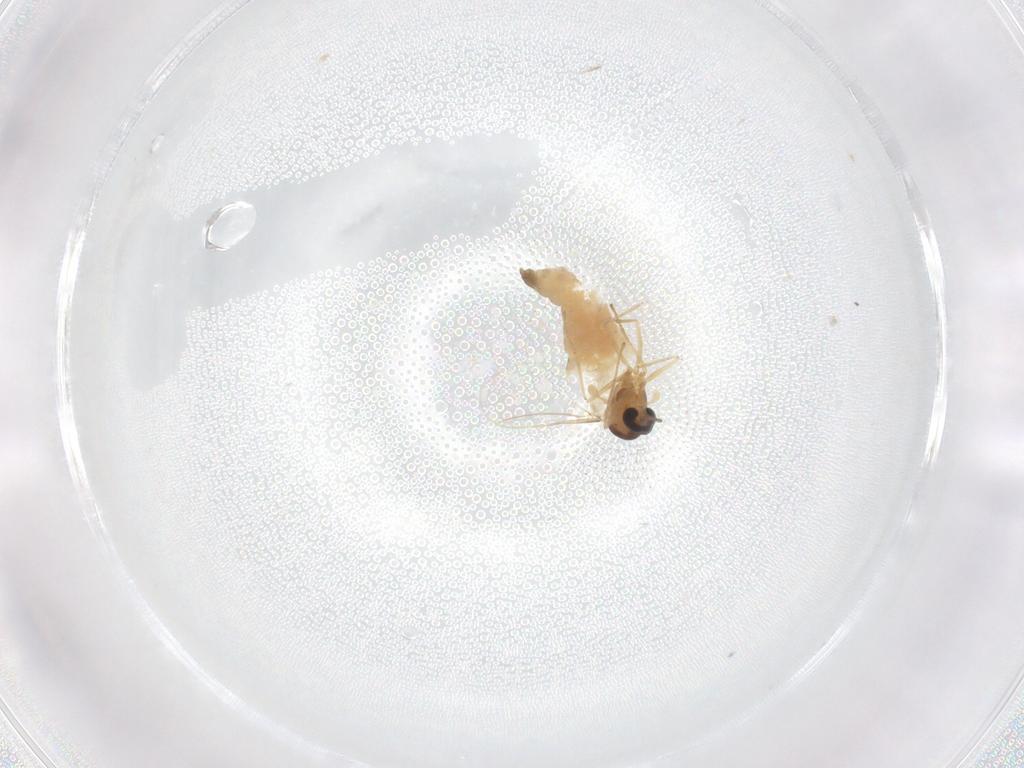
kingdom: Animalia
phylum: Arthropoda
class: Insecta
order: Diptera
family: Cecidomyiidae
